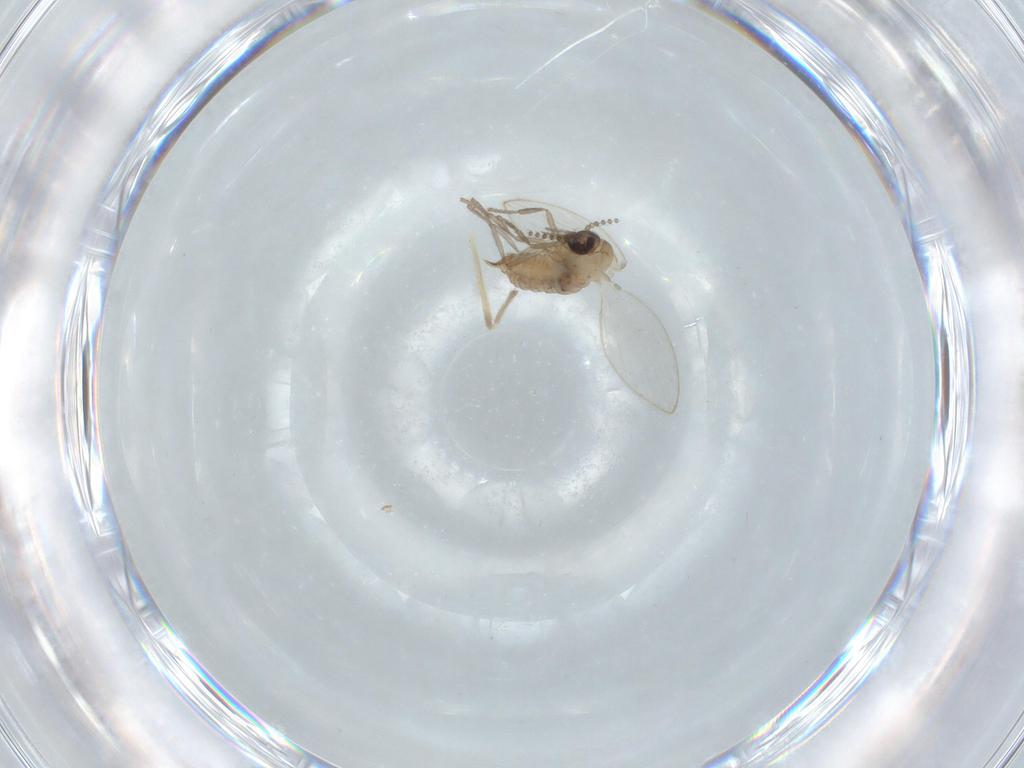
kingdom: Animalia
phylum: Arthropoda
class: Insecta
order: Diptera
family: Psychodidae
